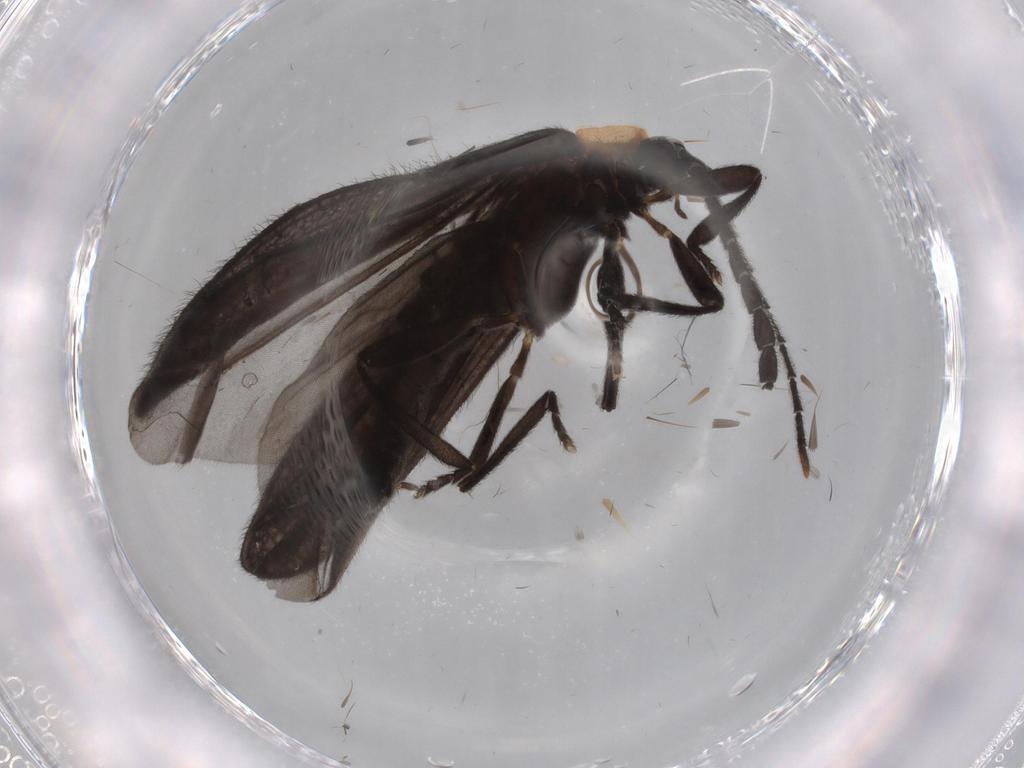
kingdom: Animalia
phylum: Arthropoda
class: Insecta
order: Coleoptera
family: Lycidae
